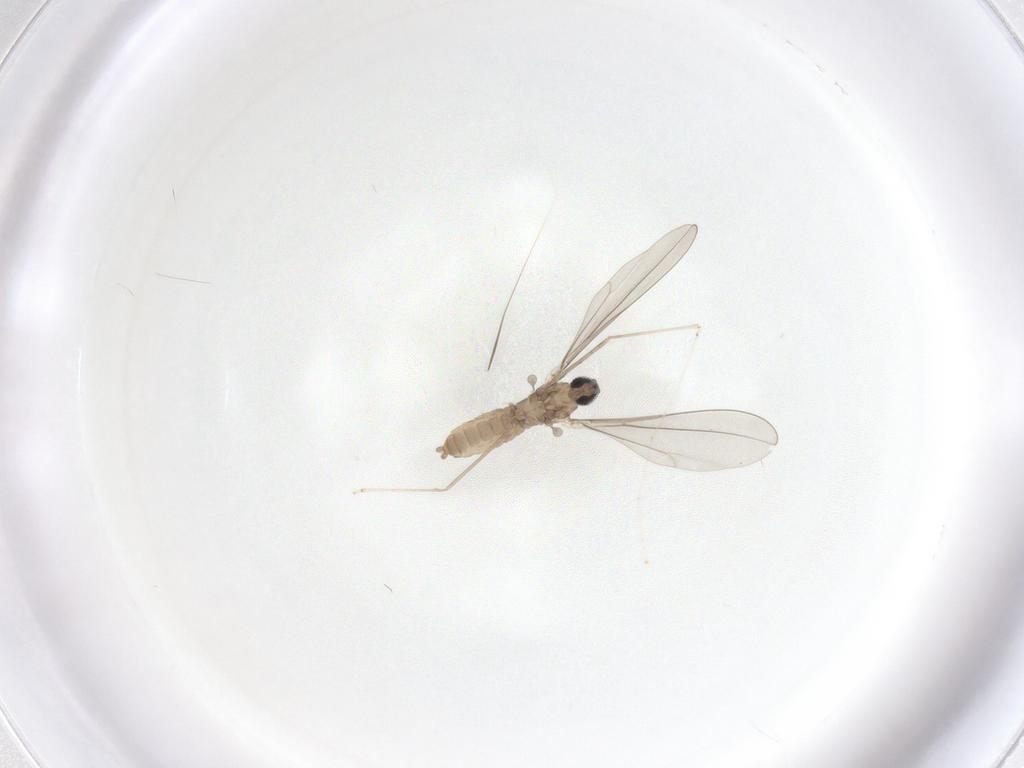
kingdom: Animalia
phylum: Arthropoda
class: Insecta
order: Diptera
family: Cecidomyiidae
